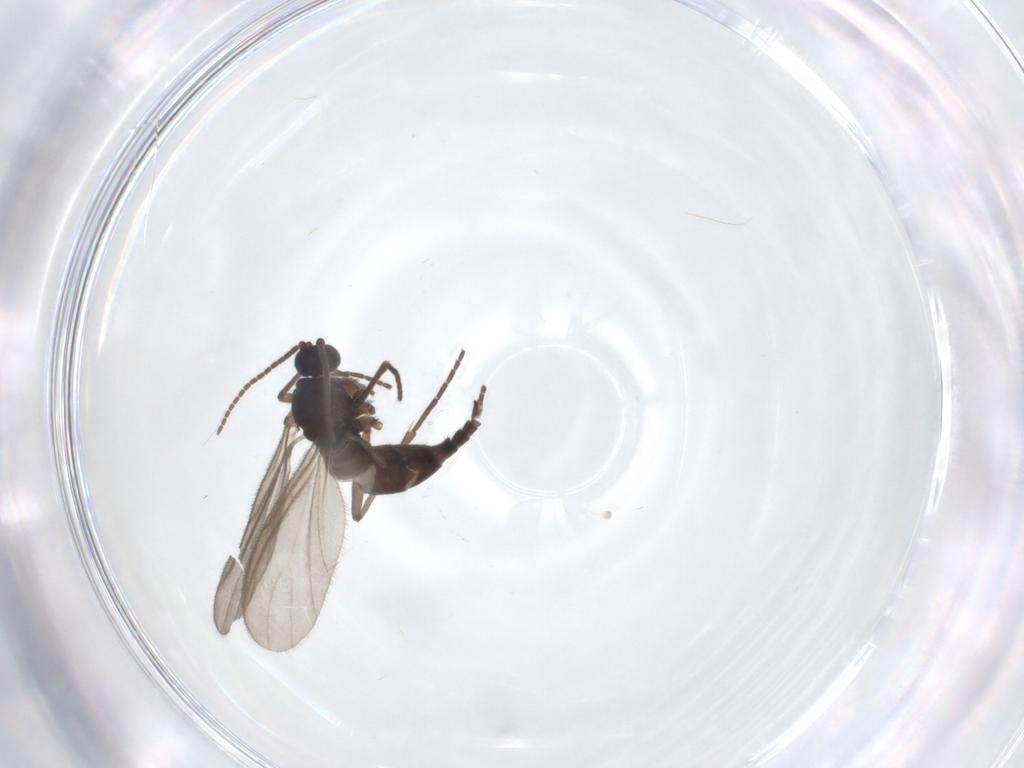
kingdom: Animalia
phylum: Arthropoda
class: Insecta
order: Diptera
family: Sciaridae
